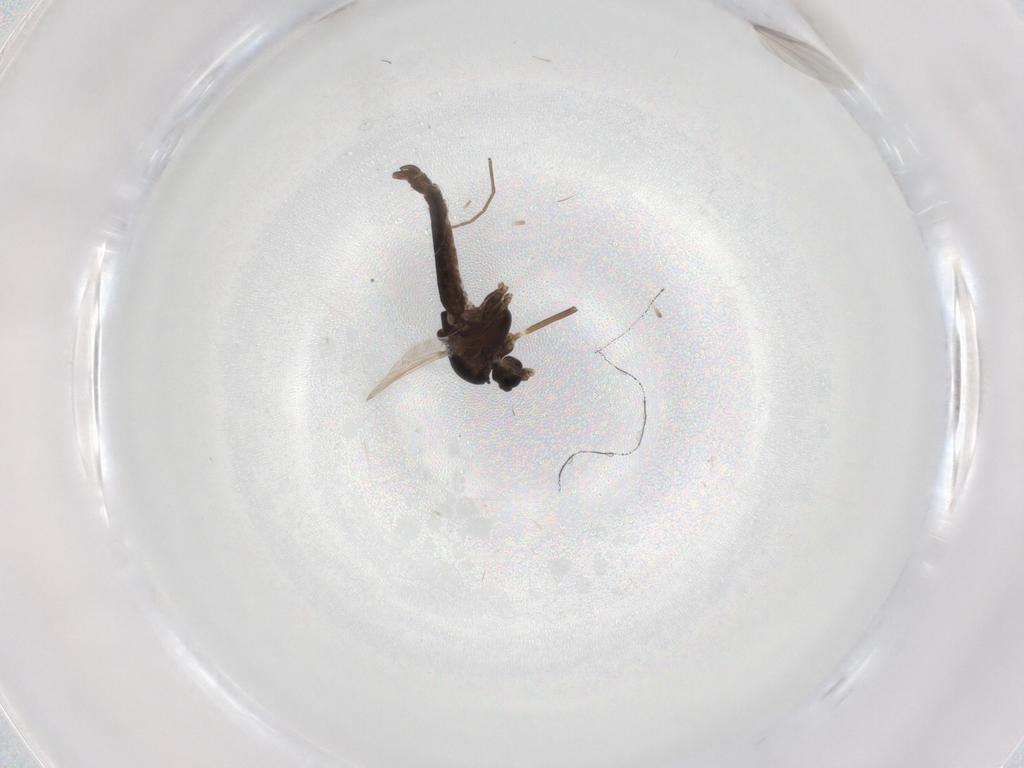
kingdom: Animalia
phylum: Arthropoda
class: Insecta
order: Diptera
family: Chironomidae
